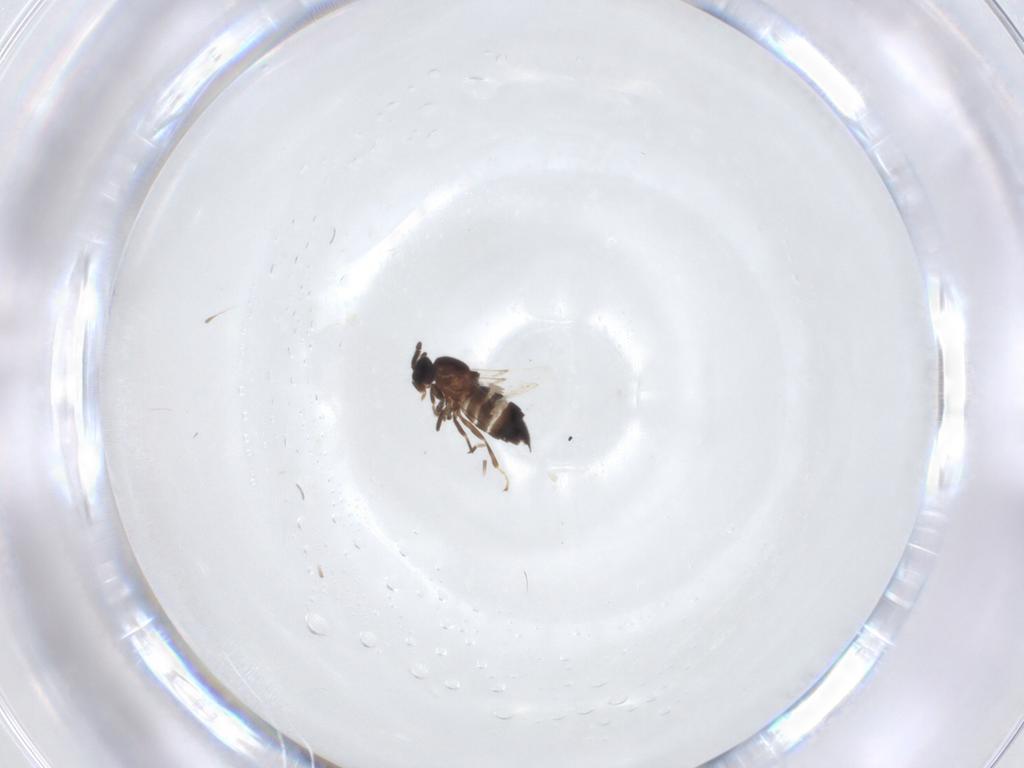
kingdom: Animalia
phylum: Arthropoda
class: Insecta
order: Diptera
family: Scatopsidae
